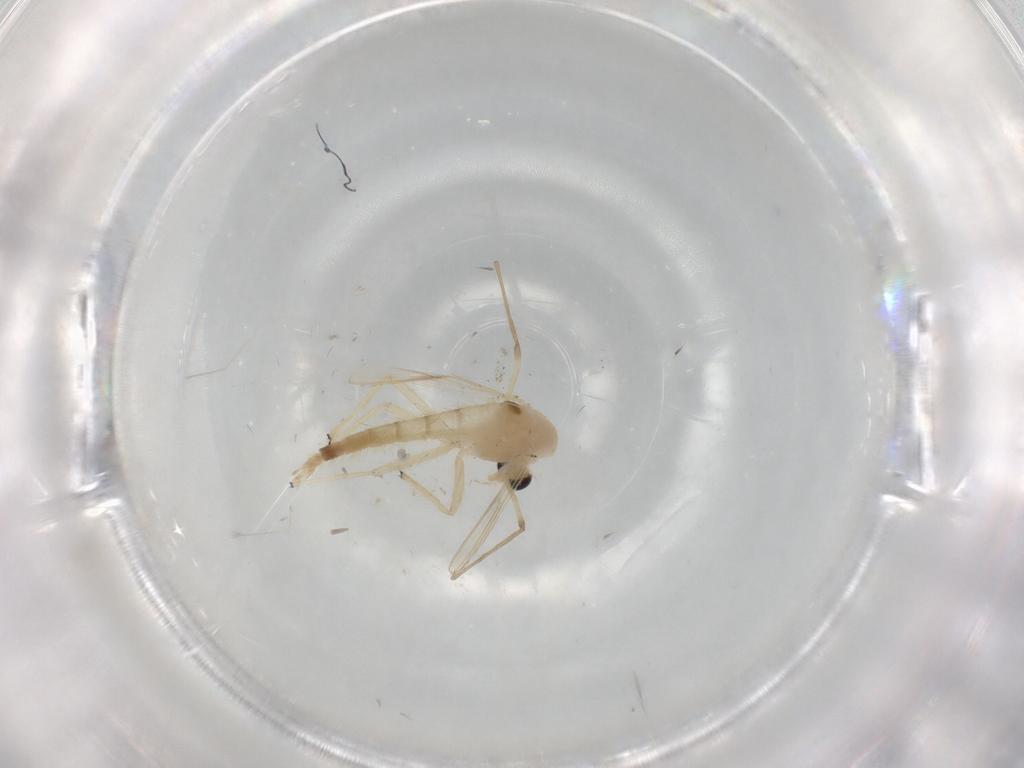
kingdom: Animalia
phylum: Arthropoda
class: Insecta
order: Diptera
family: Chironomidae
